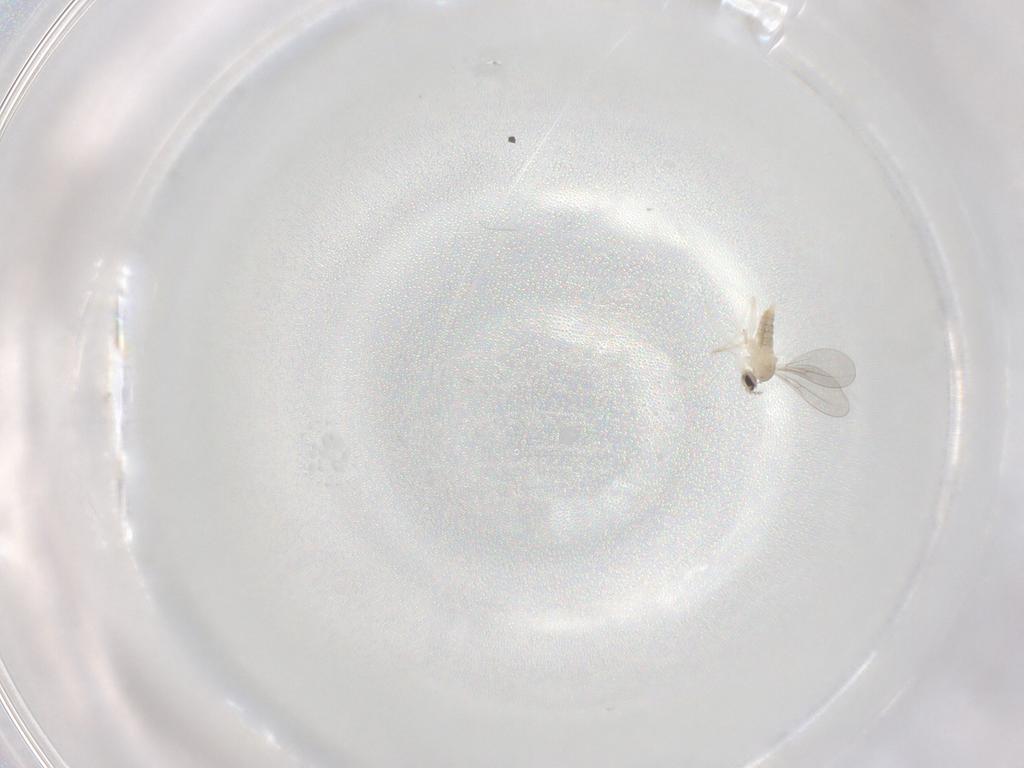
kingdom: Animalia
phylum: Arthropoda
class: Insecta
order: Diptera
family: Cecidomyiidae
